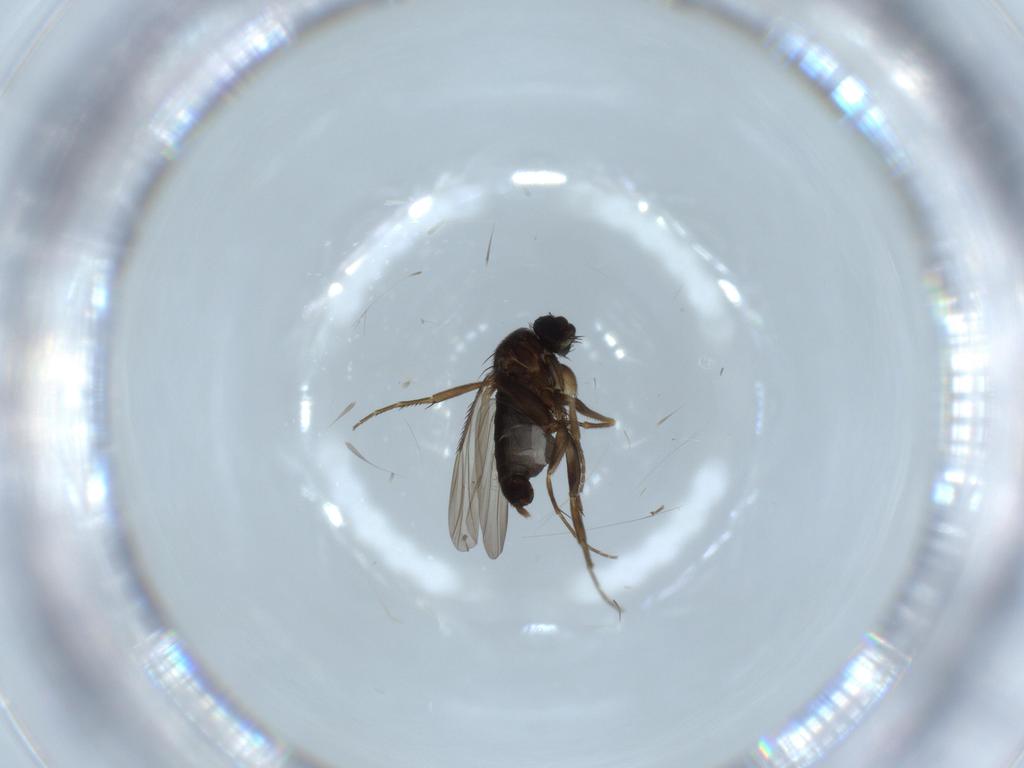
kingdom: Animalia
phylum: Arthropoda
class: Insecta
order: Diptera
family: Phoridae
